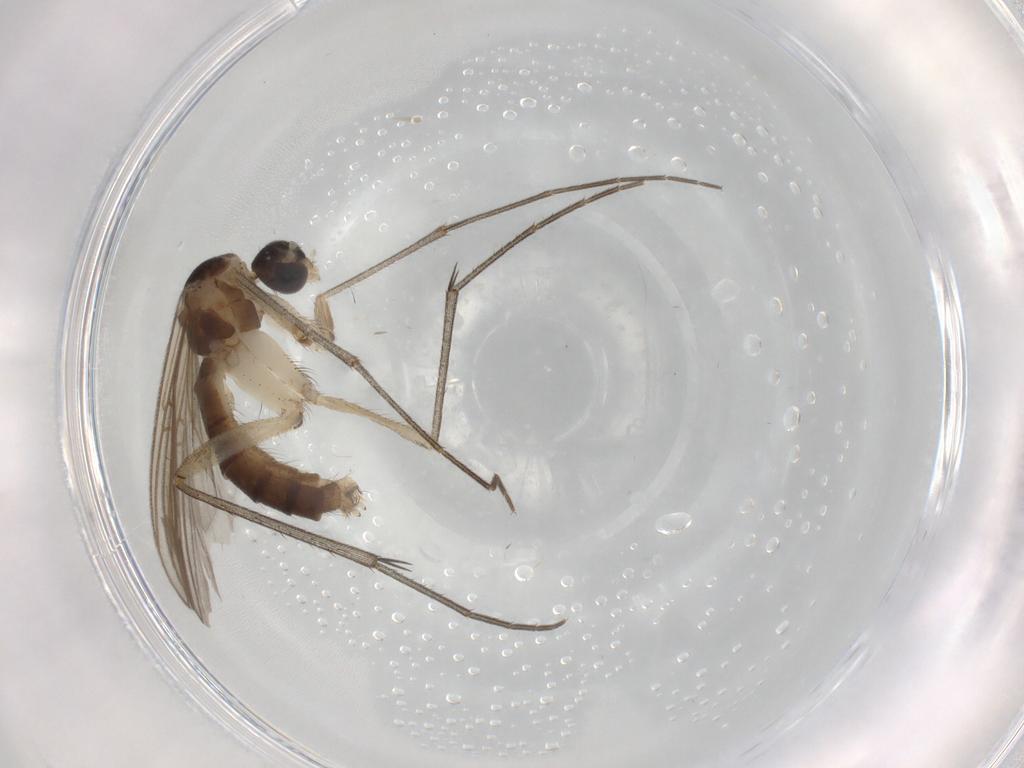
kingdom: Animalia
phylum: Arthropoda
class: Insecta
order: Diptera
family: Mycetophilidae
